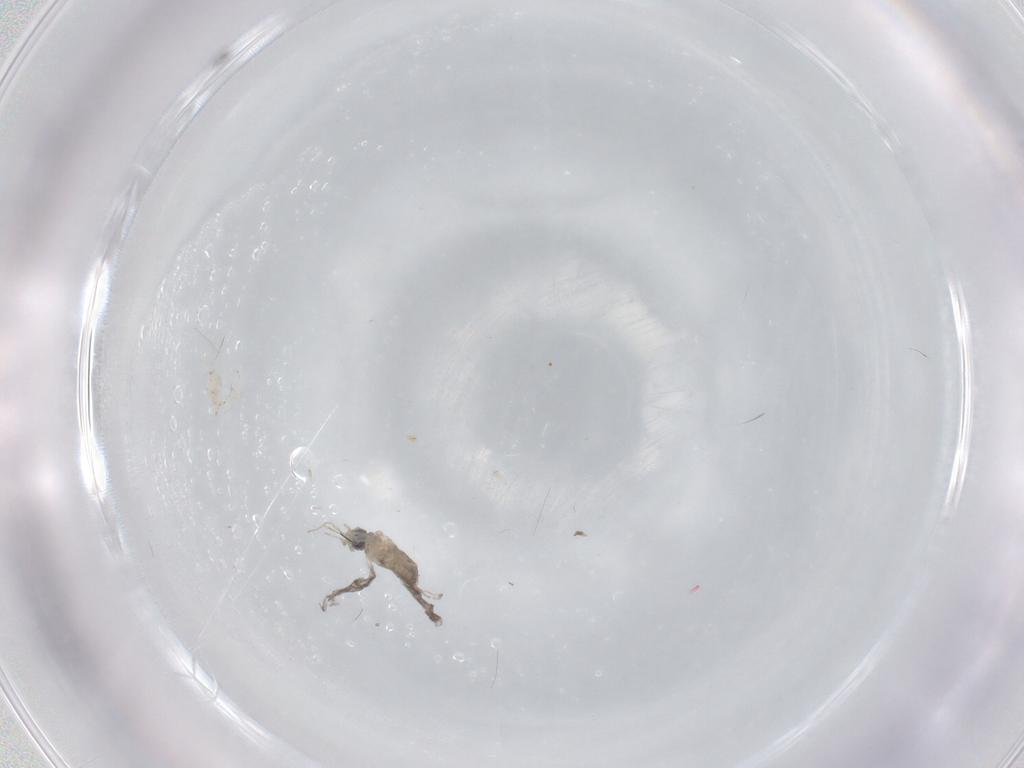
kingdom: Animalia
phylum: Arthropoda
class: Insecta
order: Diptera
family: Cecidomyiidae
